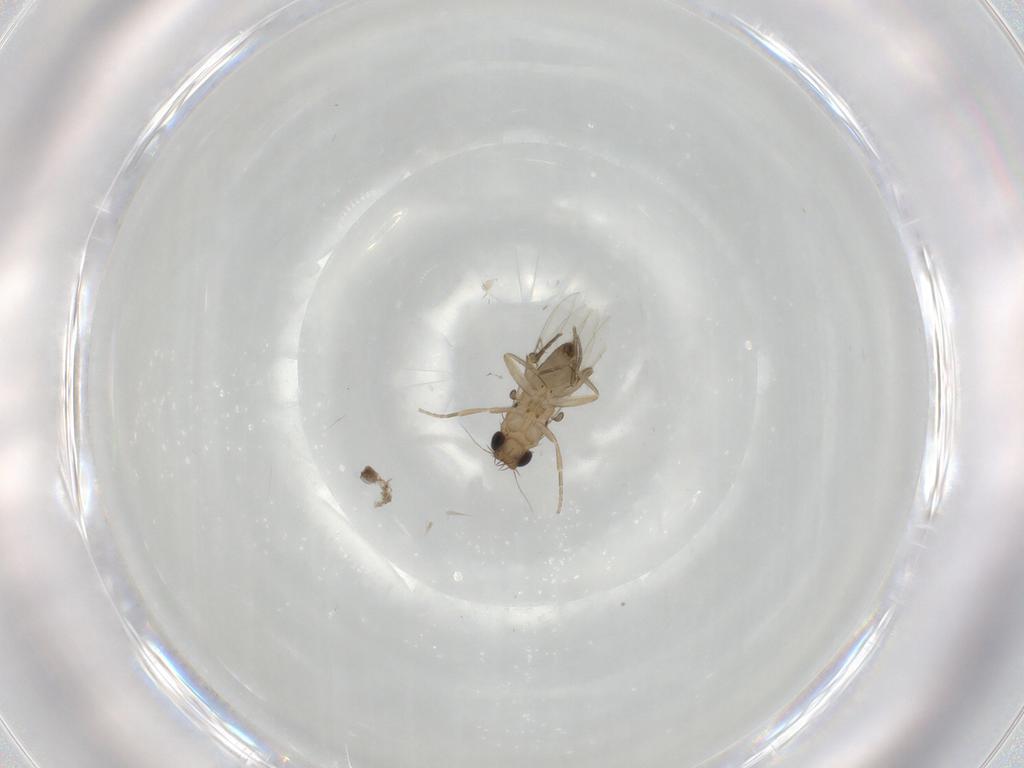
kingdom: Animalia
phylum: Arthropoda
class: Insecta
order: Diptera
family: Phoridae
